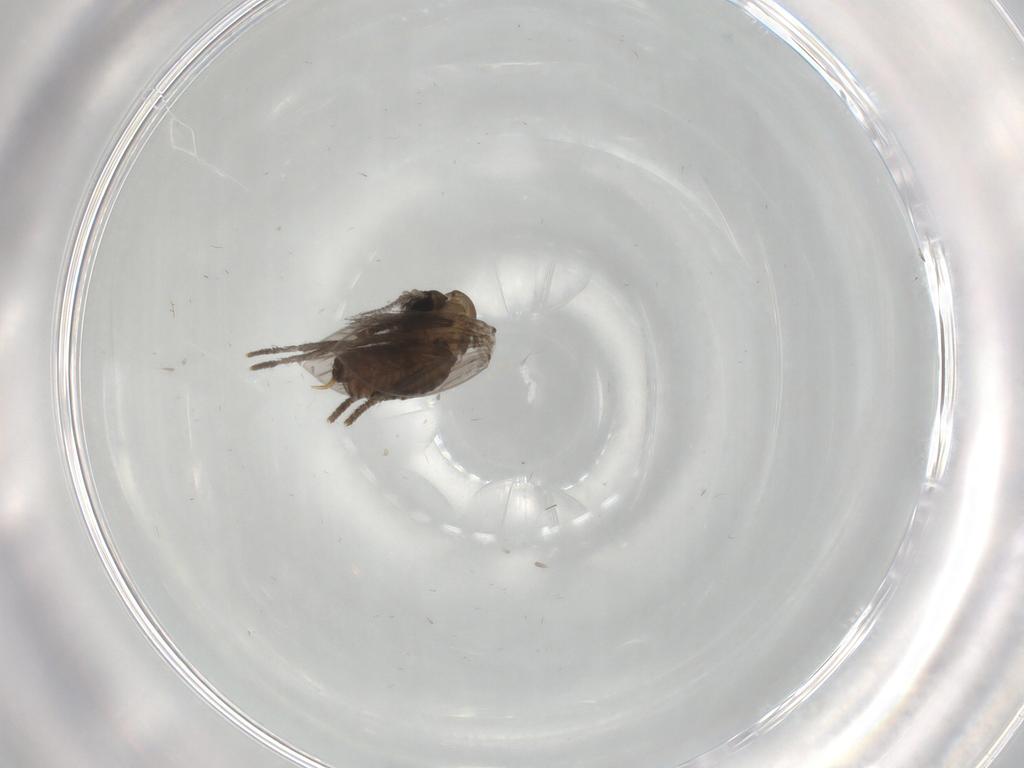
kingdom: Animalia
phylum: Arthropoda
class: Insecta
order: Diptera
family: Psychodidae
